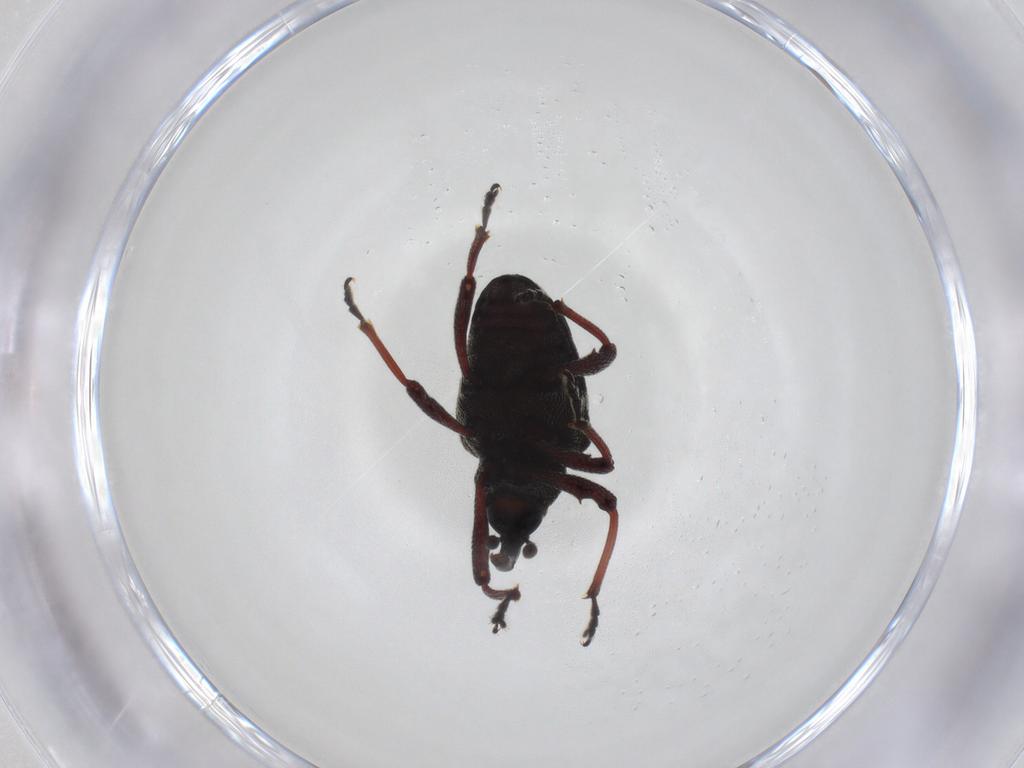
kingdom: Animalia
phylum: Arthropoda
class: Insecta
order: Coleoptera
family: Curculionidae
